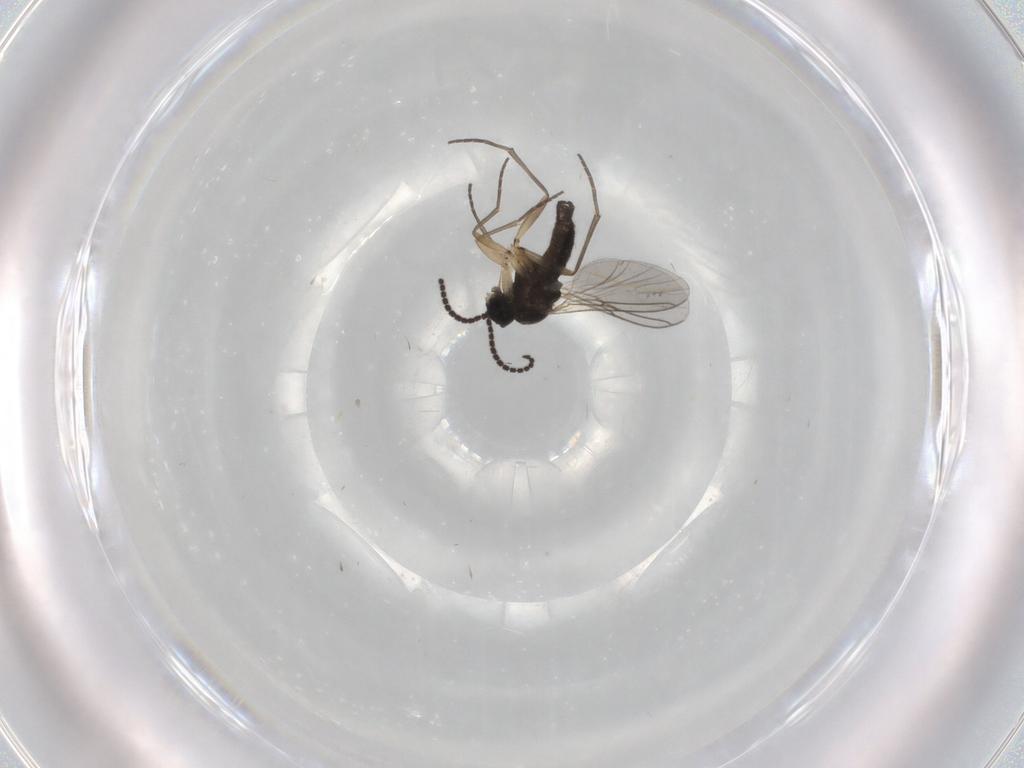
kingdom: Animalia
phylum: Arthropoda
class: Insecta
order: Diptera
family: Sciaridae
